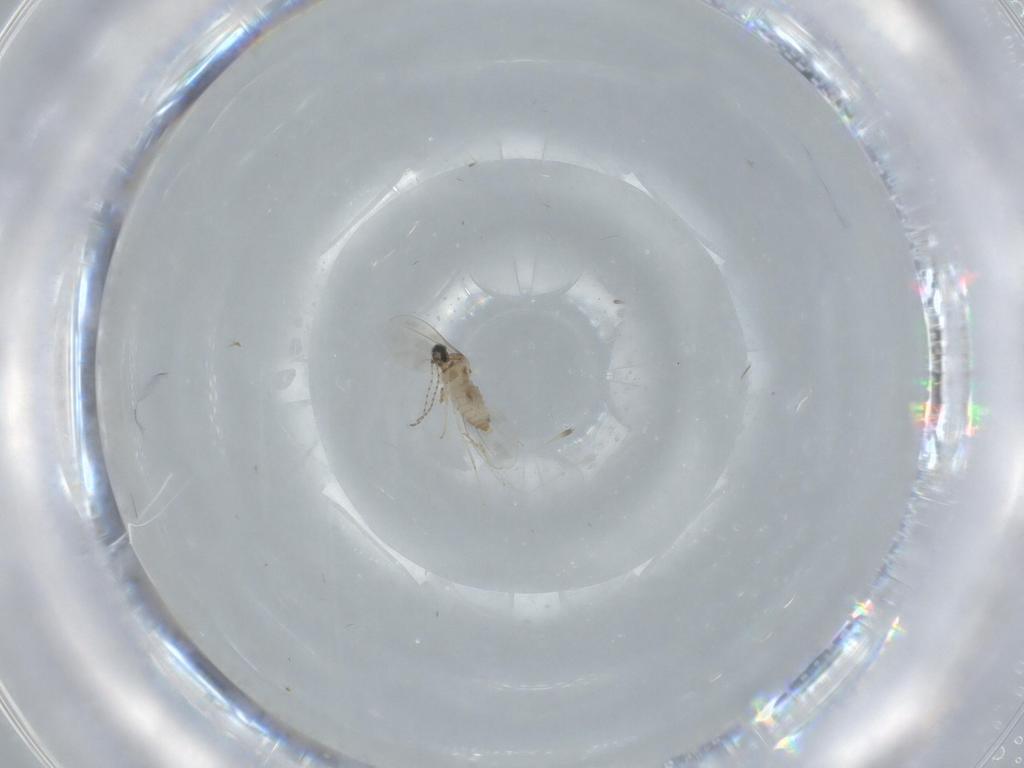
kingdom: Animalia
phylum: Arthropoda
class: Insecta
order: Diptera
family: Cecidomyiidae
